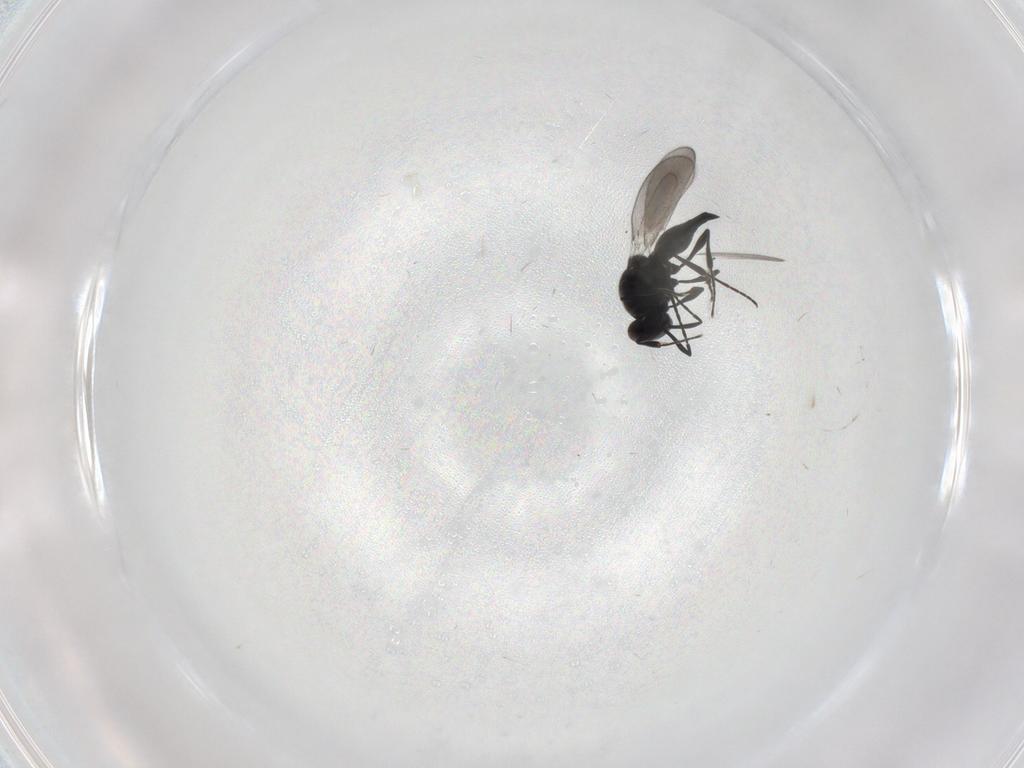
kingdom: Animalia
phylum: Arthropoda
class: Insecta
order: Diptera
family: Mythicomyiidae
